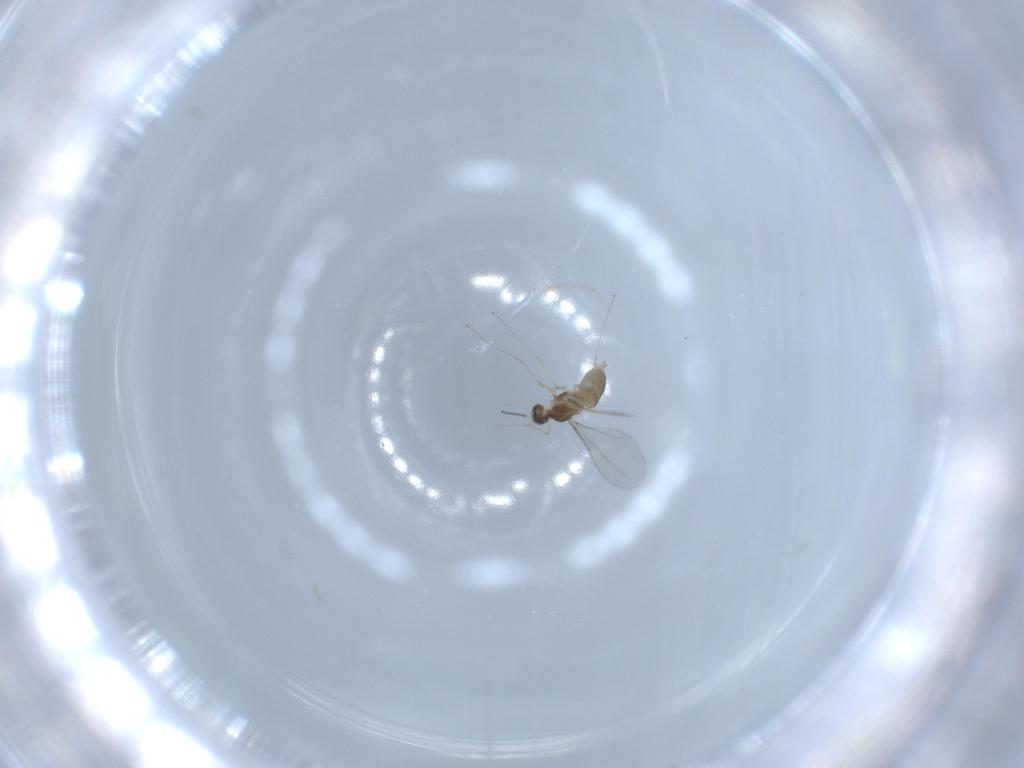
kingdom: Animalia
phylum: Arthropoda
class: Insecta
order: Diptera
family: Cecidomyiidae
